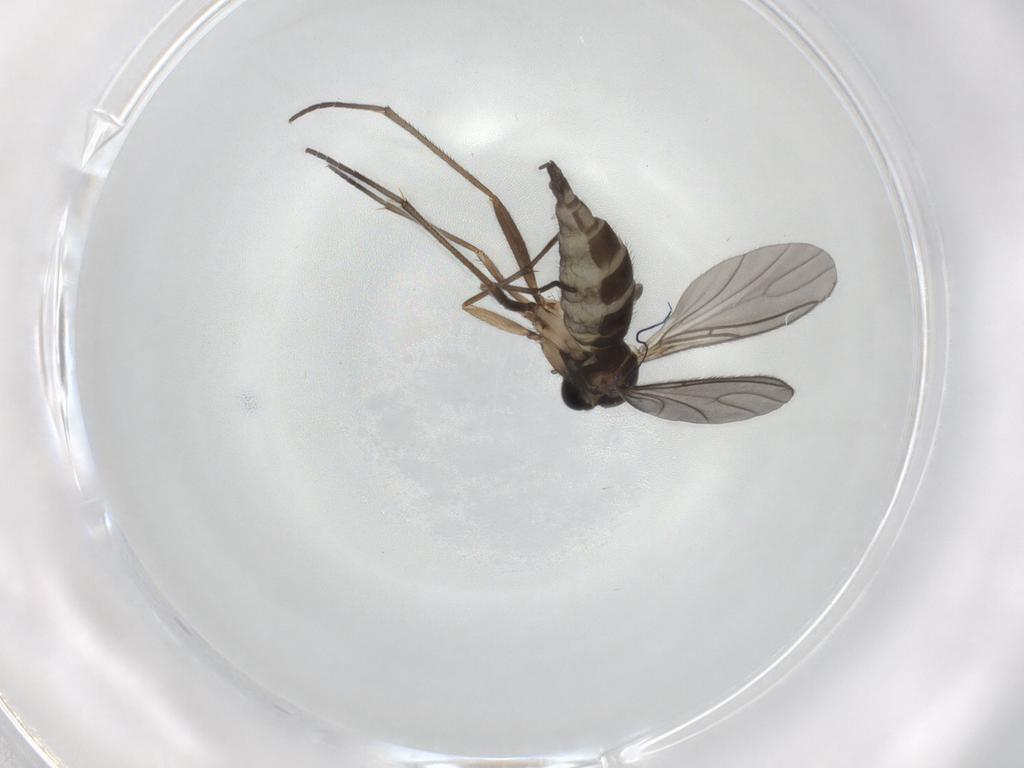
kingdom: Animalia
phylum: Arthropoda
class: Insecta
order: Diptera
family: Sciaridae
